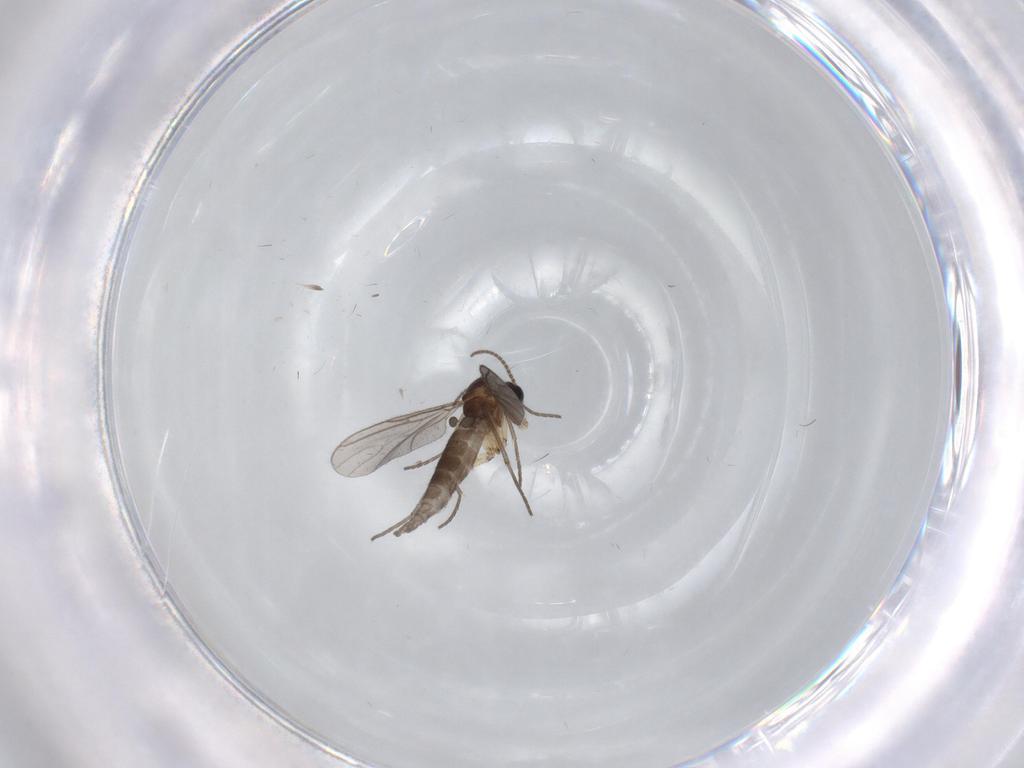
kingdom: Animalia
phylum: Arthropoda
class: Insecta
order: Diptera
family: Sciaridae
